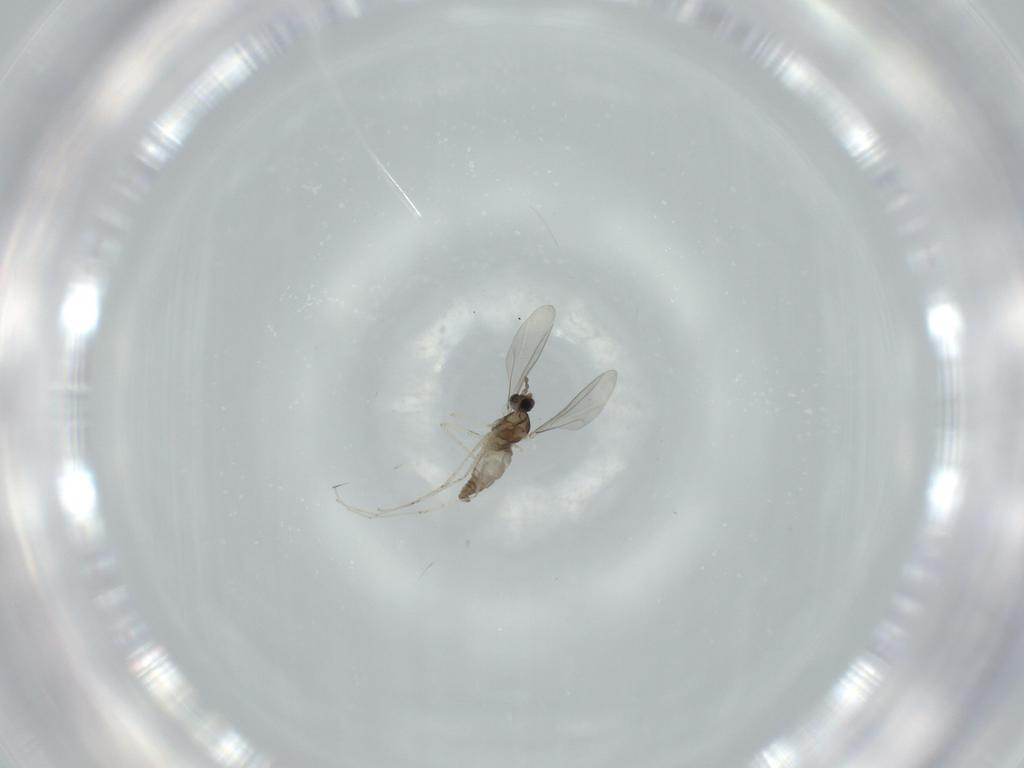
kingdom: Animalia
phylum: Arthropoda
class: Insecta
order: Diptera
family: Cecidomyiidae
